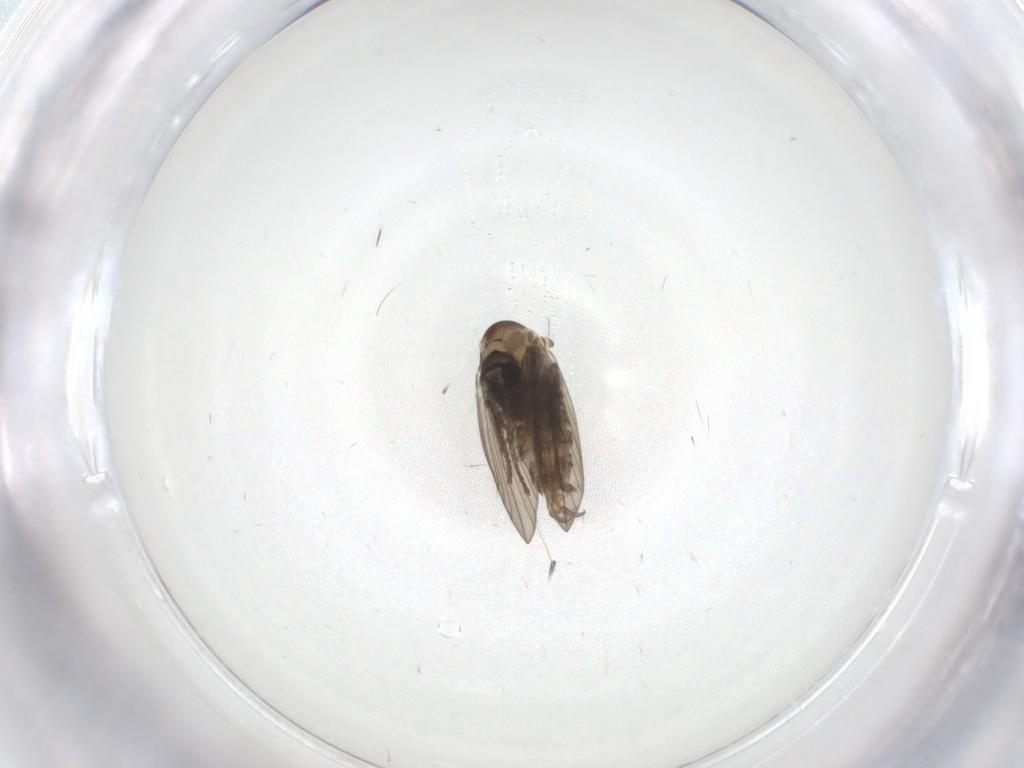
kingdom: Animalia
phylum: Arthropoda
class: Insecta
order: Diptera
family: Psychodidae
